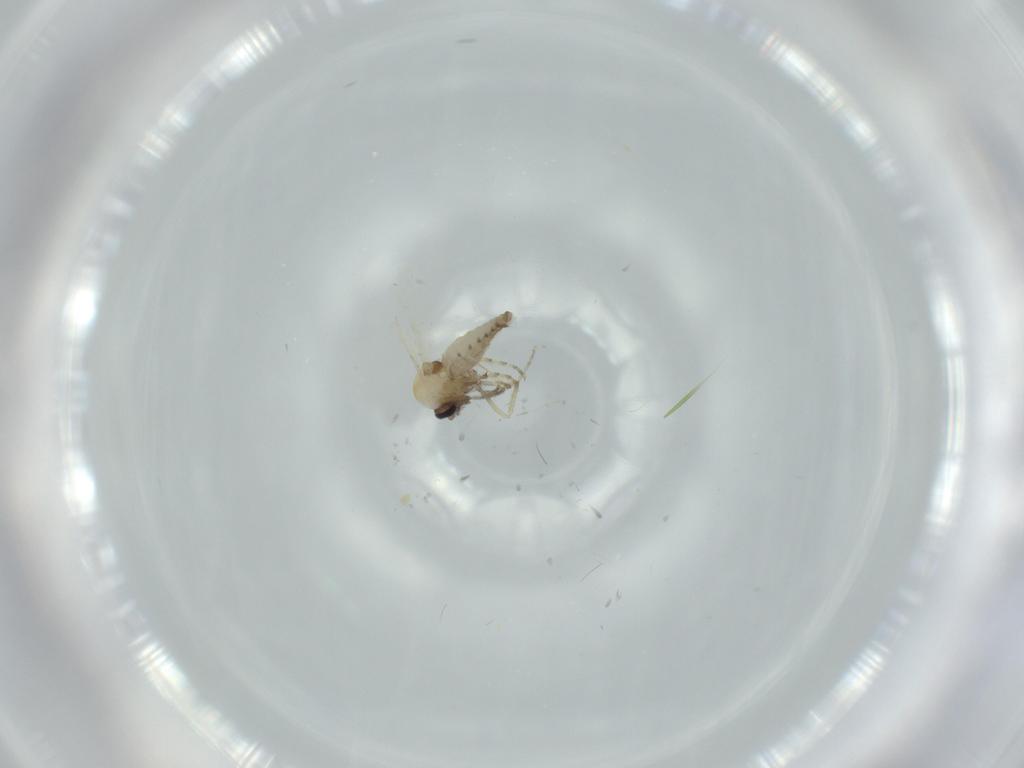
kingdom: Animalia
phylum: Arthropoda
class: Insecta
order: Diptera
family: Ceratopogonidae
